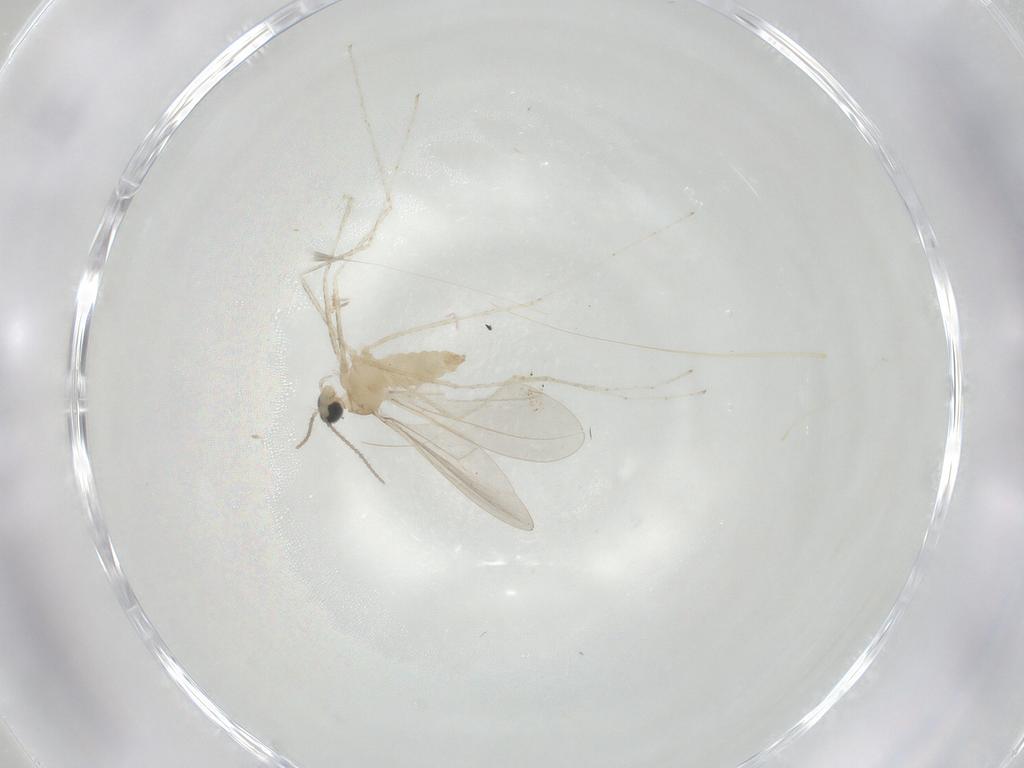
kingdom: Animalia
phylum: Arthropoda
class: Insecta
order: Diptera
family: Cecidomyiidae
